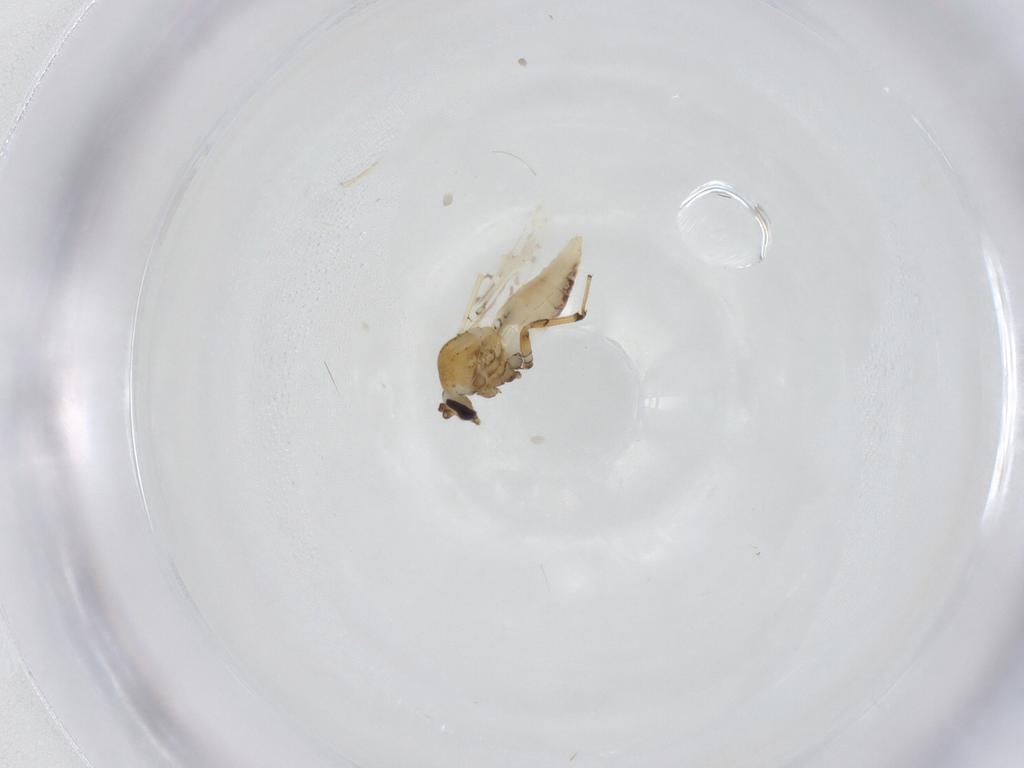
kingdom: Animalia
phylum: Arthropoda
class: Insecta
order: Diptera
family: Ceratopogonidae
